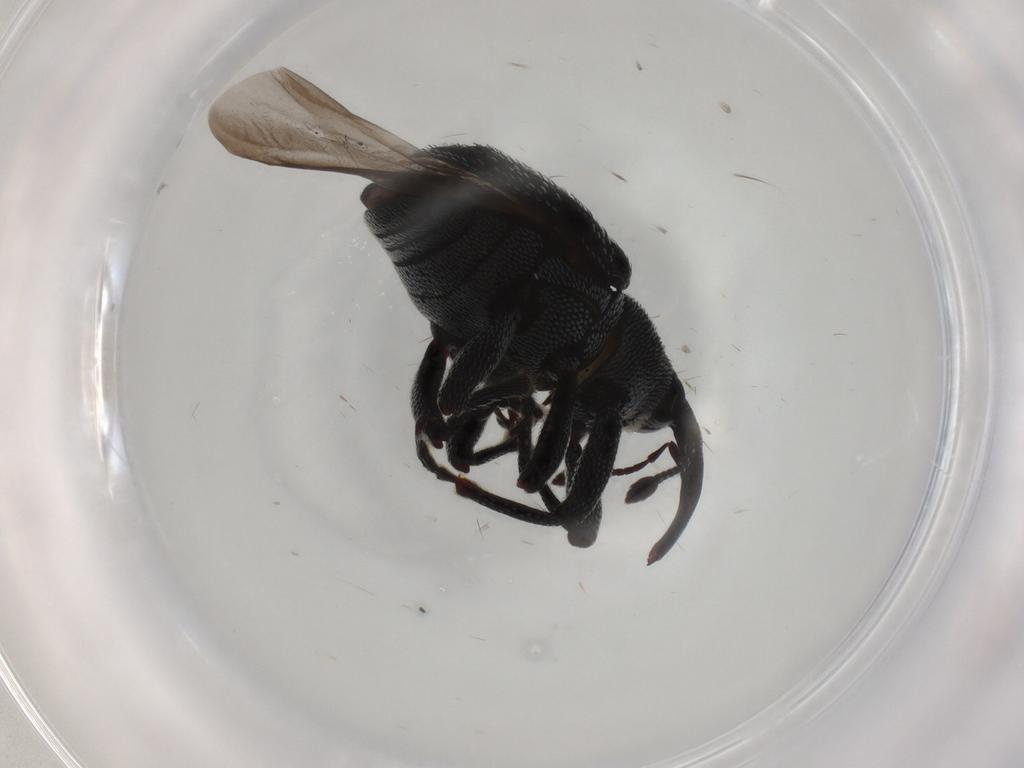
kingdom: Animalia
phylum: Arthropoda
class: Insecta
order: Coleoptera
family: Curculionidae
